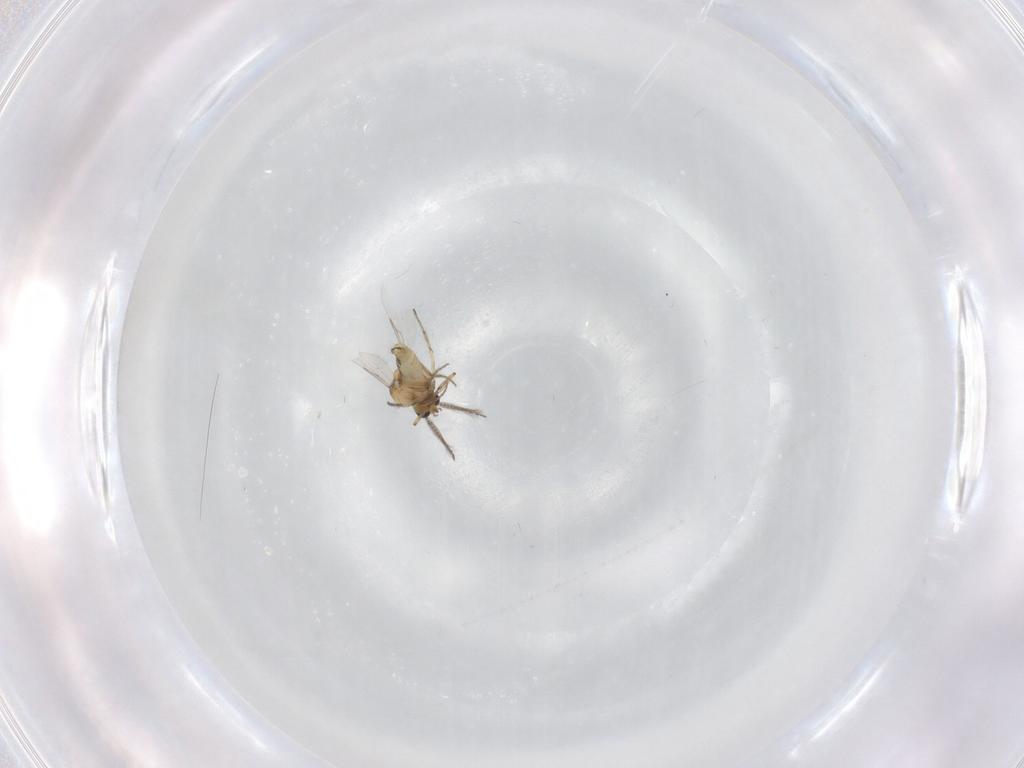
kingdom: Animalia
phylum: Arthropoda
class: Insecta
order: Diptera
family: Ceratopogonidae
